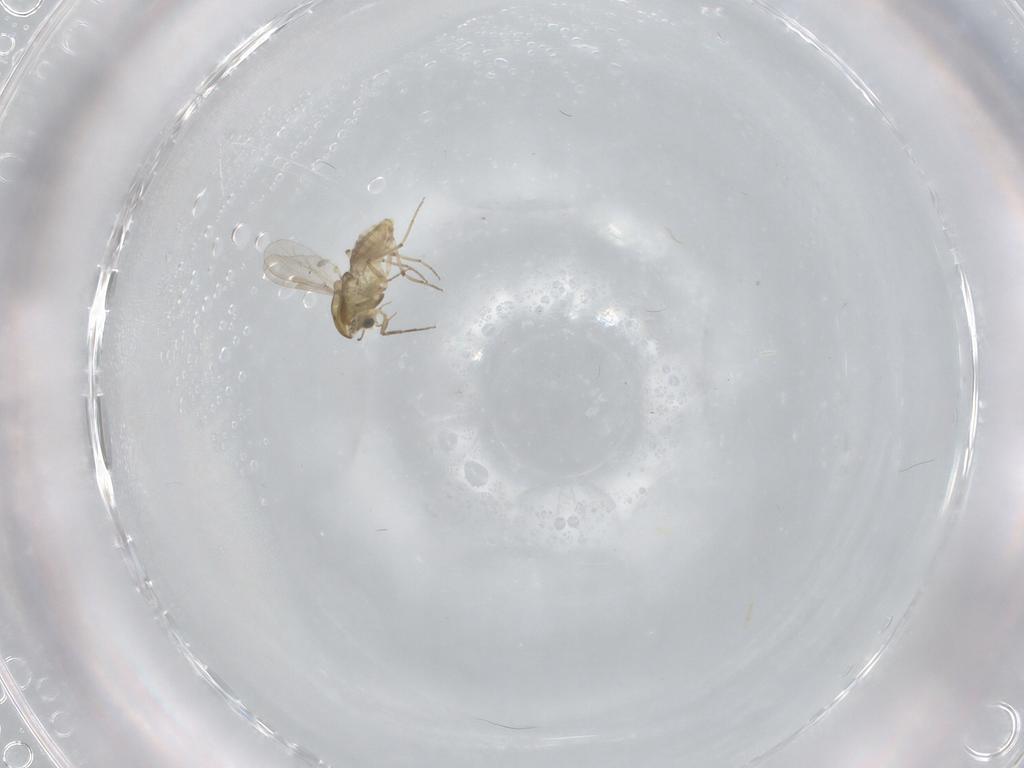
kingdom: Animalia
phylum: Arthropoda
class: Insecta
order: Diptera
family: Chironomidae
